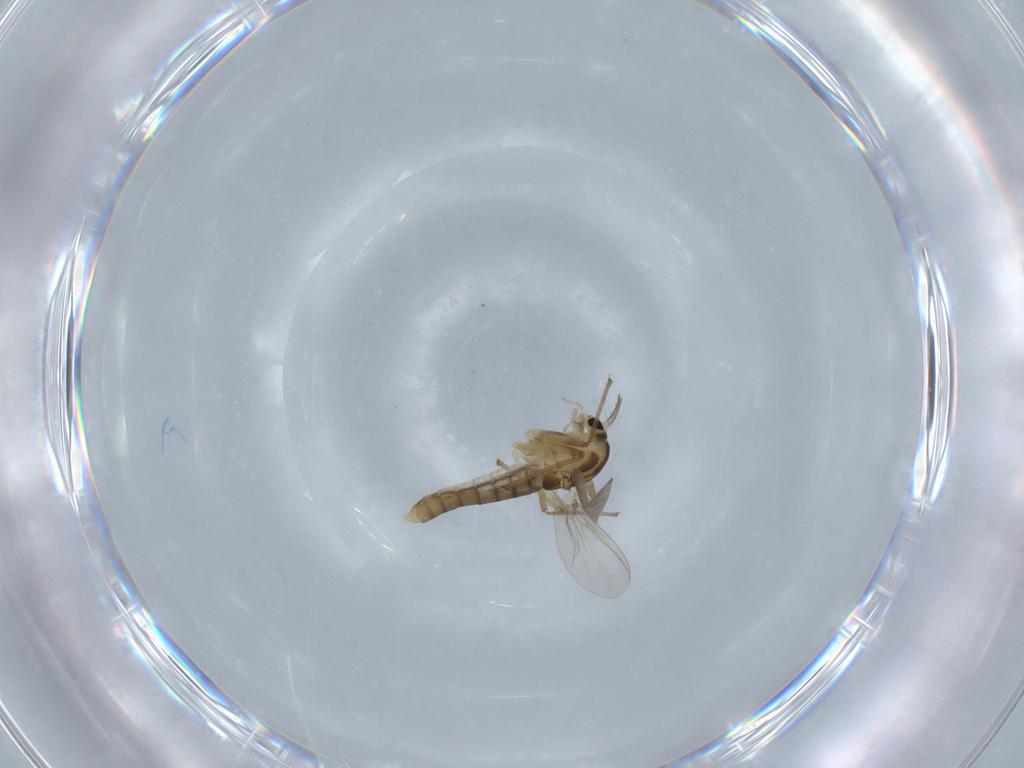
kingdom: Animalia
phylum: Arthropoda
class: Insecta
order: Diptera
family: Chironomidae
